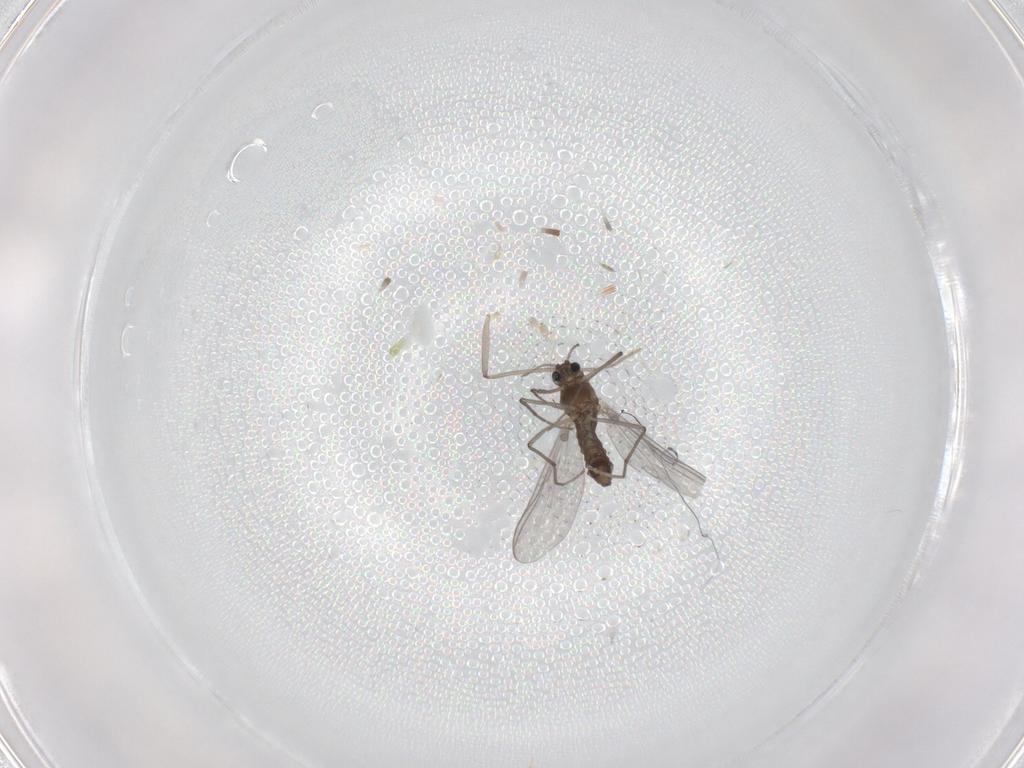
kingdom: Animalia
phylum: Arthropoda
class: Insecta
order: Diptera
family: Chironomidae
